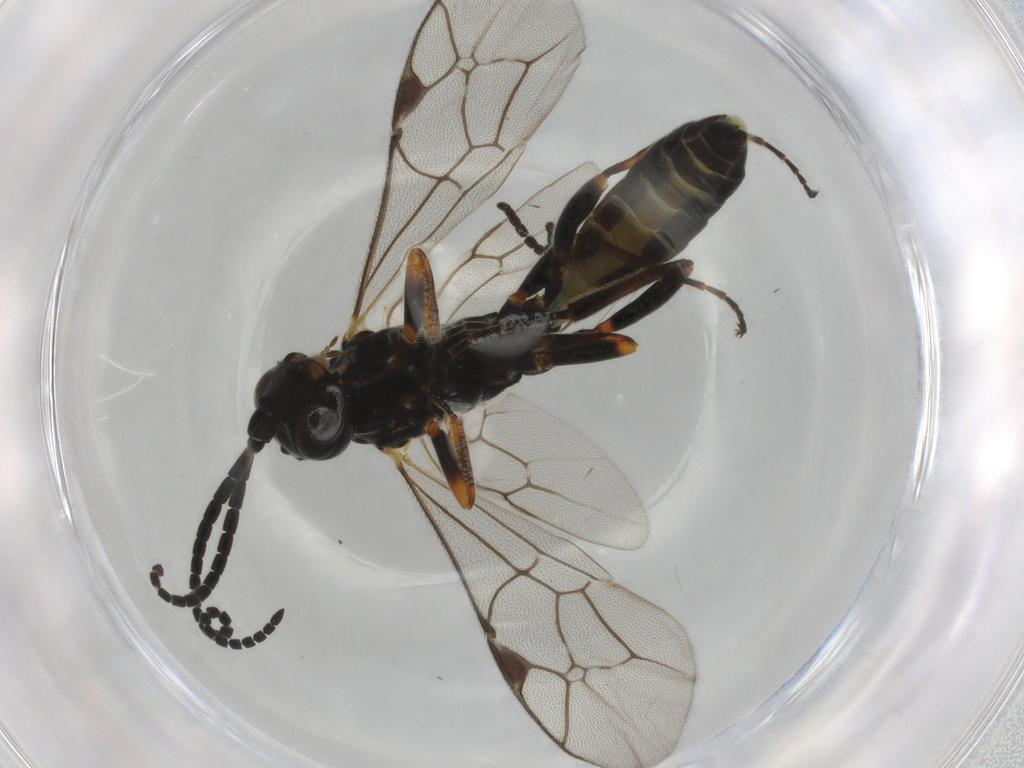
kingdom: Animalia
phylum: Arthropoda
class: Insecta
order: Hymenoptera
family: Ichneumonidae
